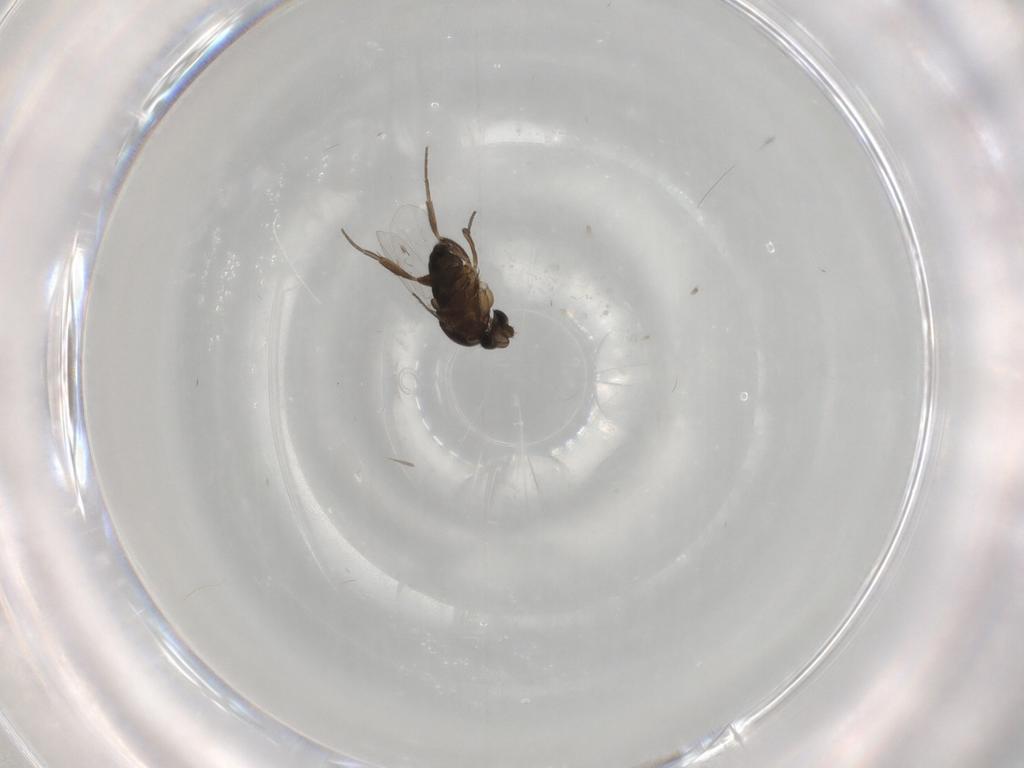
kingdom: Animalia
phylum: Arthropoda
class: Insecta
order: Diptera
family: Phoridae
